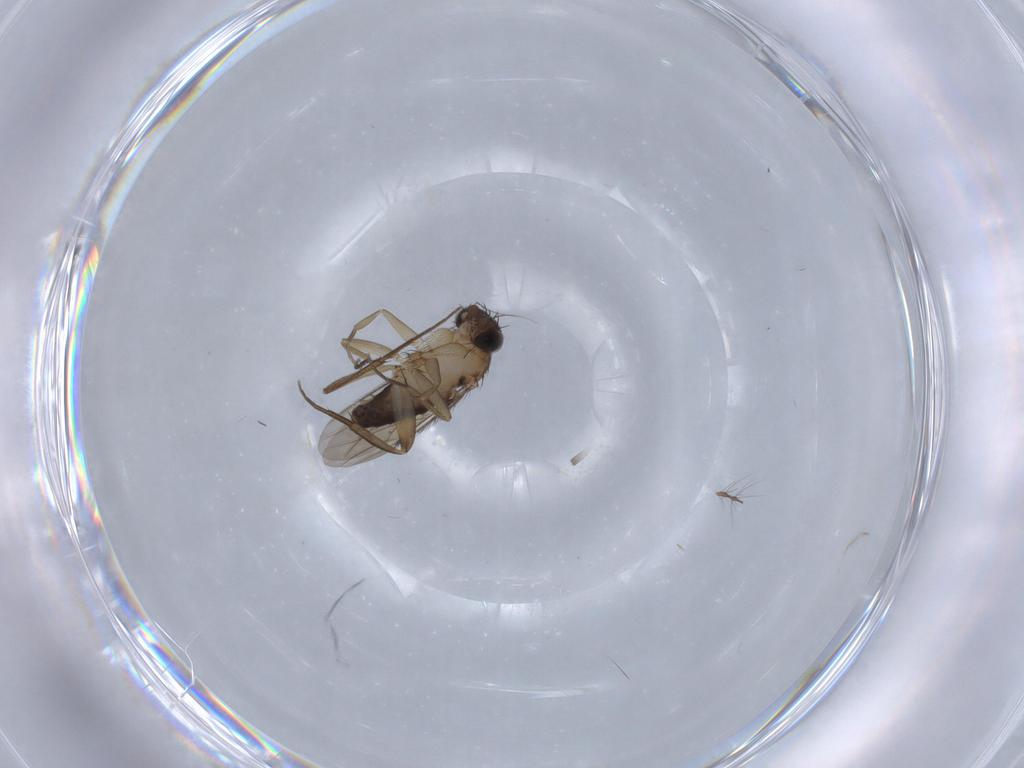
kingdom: Animalia
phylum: Arthropoda
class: Insecta
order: Diptera
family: Phoridae
